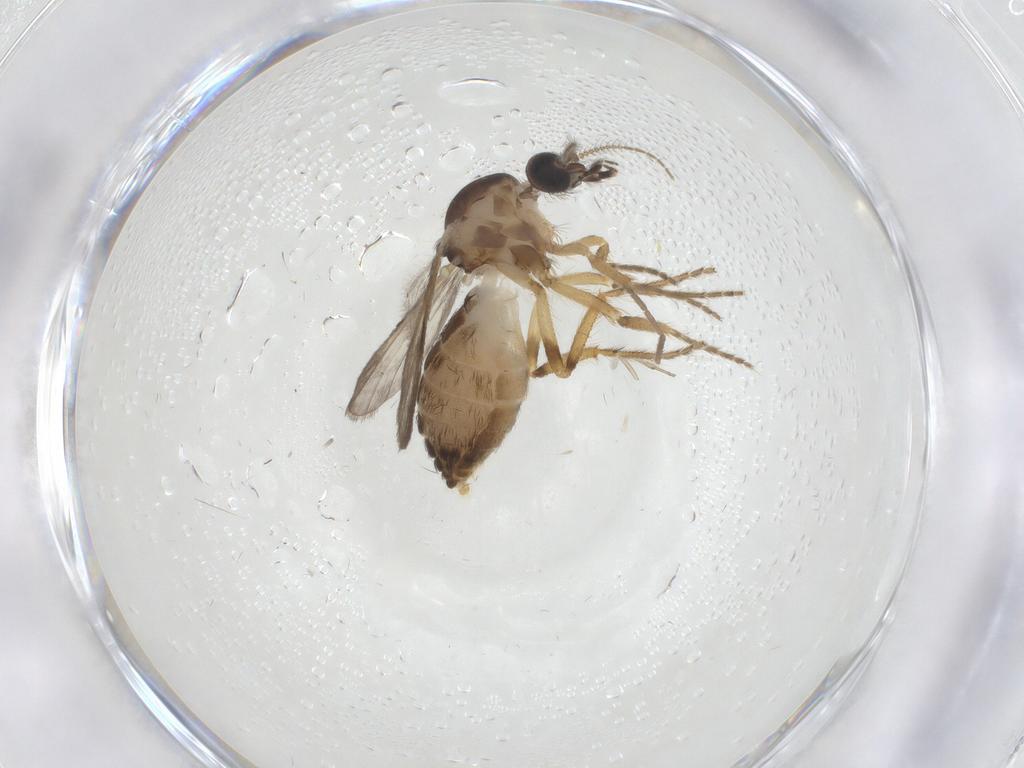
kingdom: Animalia
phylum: Arthropoda
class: Insecta
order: Diptera
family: Ceratopogonidae
